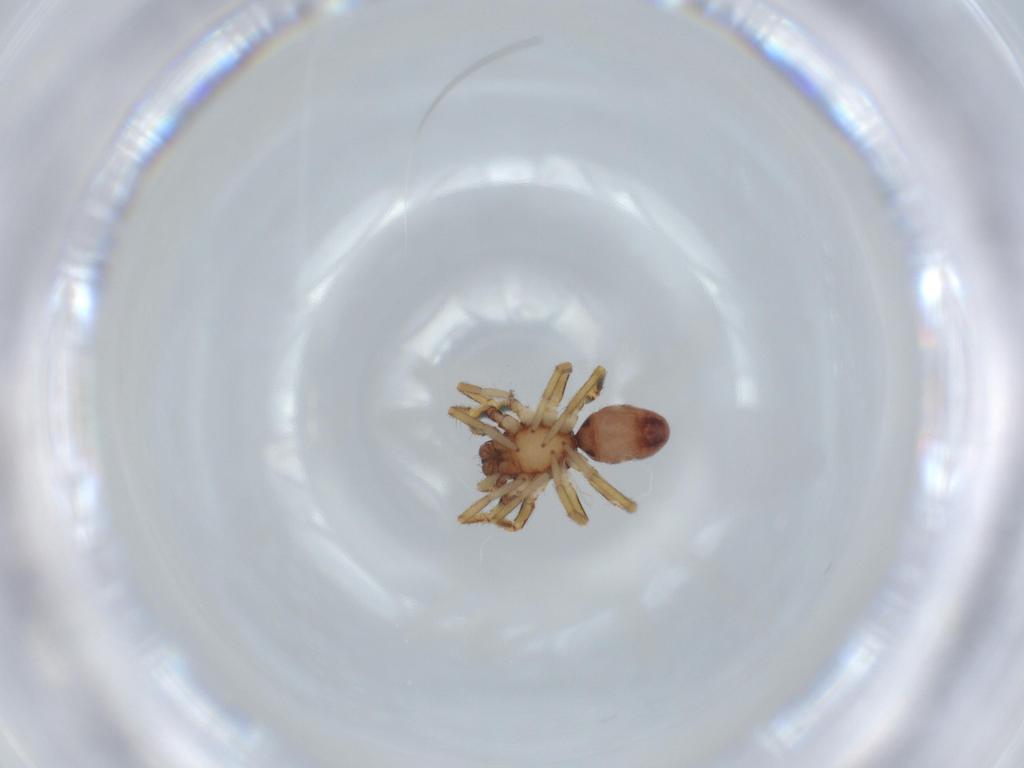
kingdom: Animalia
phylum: Arthropoda
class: Arachnida
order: Araneae
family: Corinnidae
